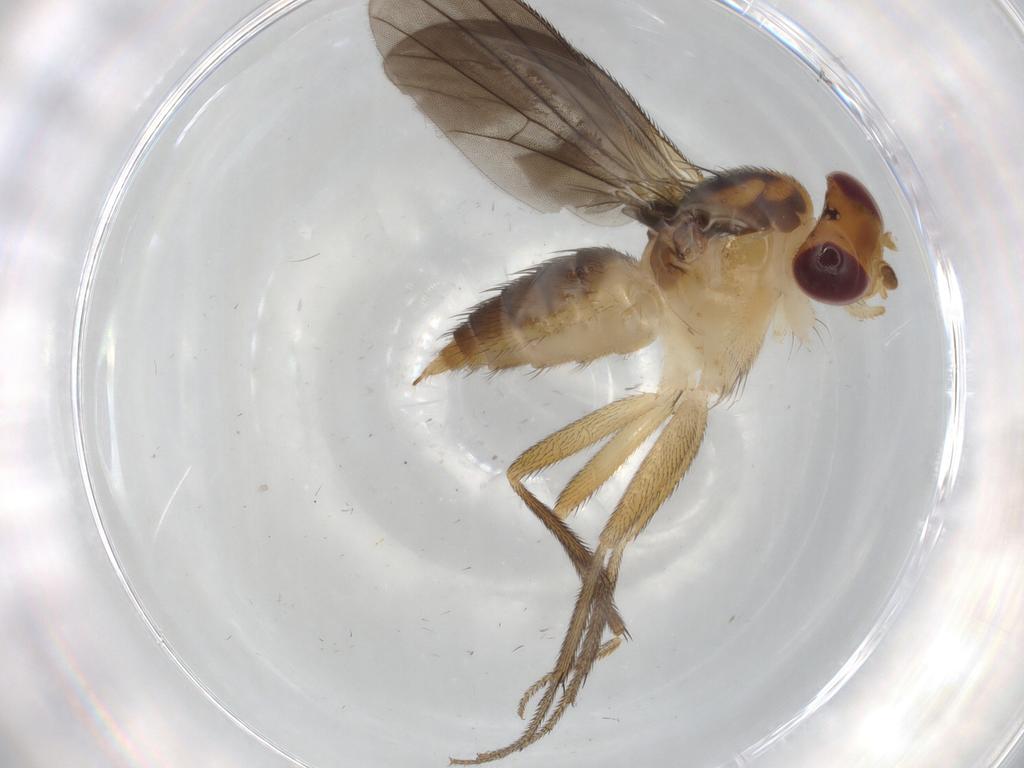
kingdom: Animalia
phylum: Arthropoda
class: Insecta
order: Diptera
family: Clusiidae
